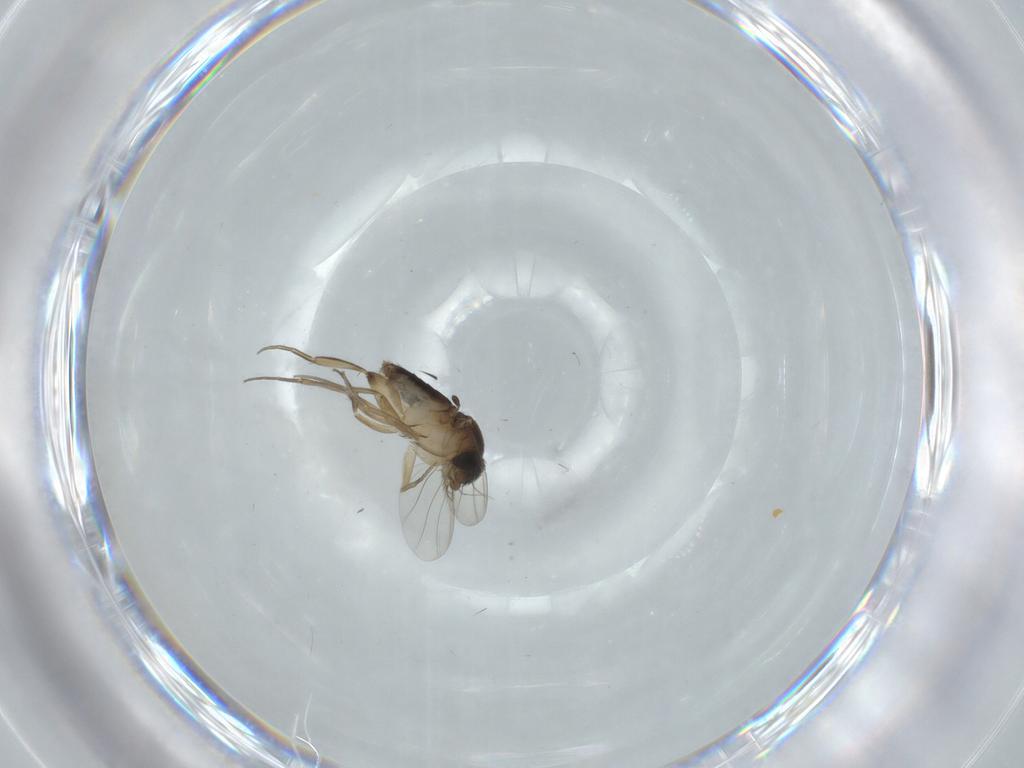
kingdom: Animalia
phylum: Arthropoda
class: Insecta
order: Diptera
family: Phoridae
